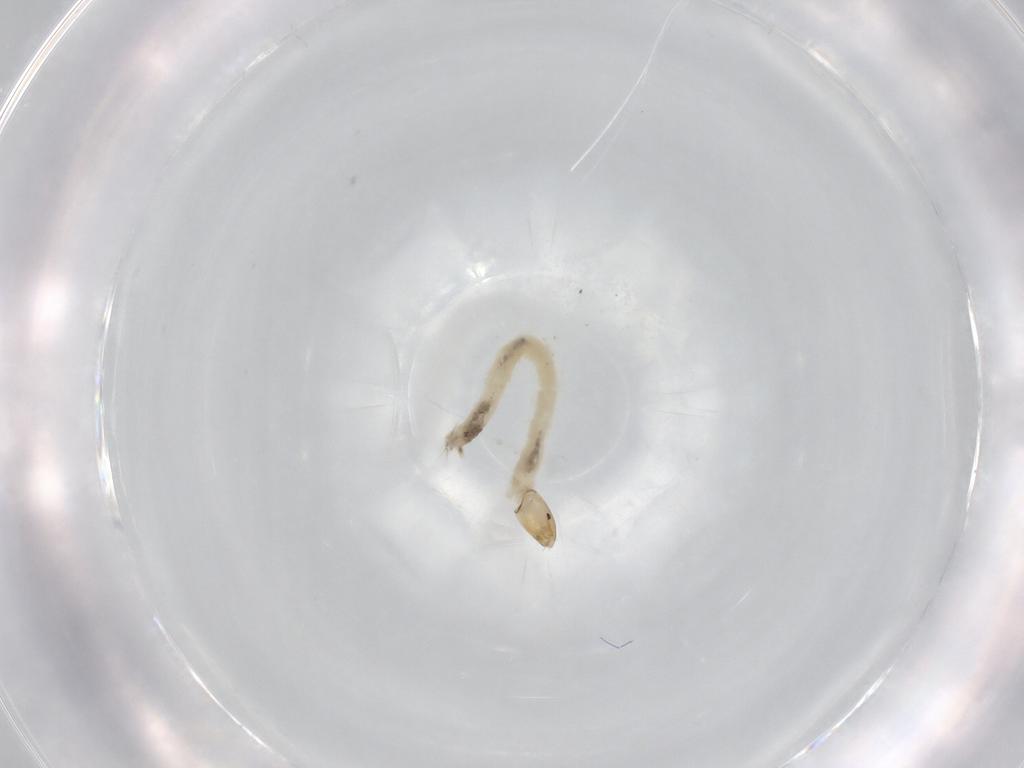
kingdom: Animalia
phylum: Arthropoda
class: Insecta
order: Diptera
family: Chironomidae
